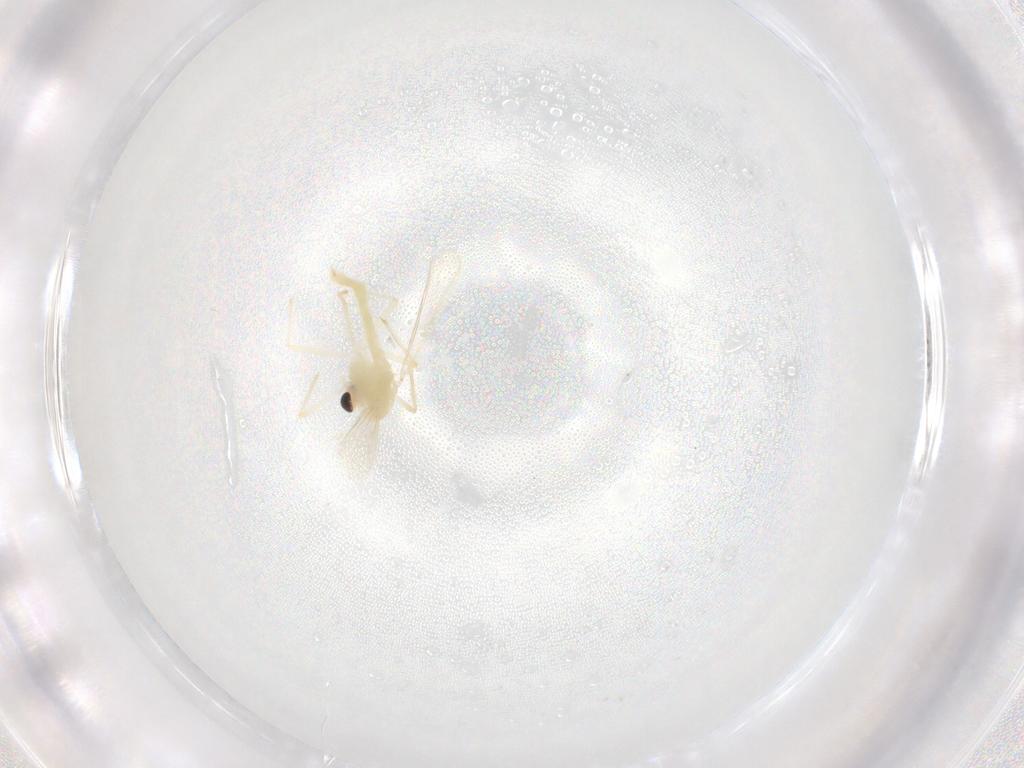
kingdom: Animalia
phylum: Arthropoda
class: Insecta
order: Diptera
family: Chironomidae
